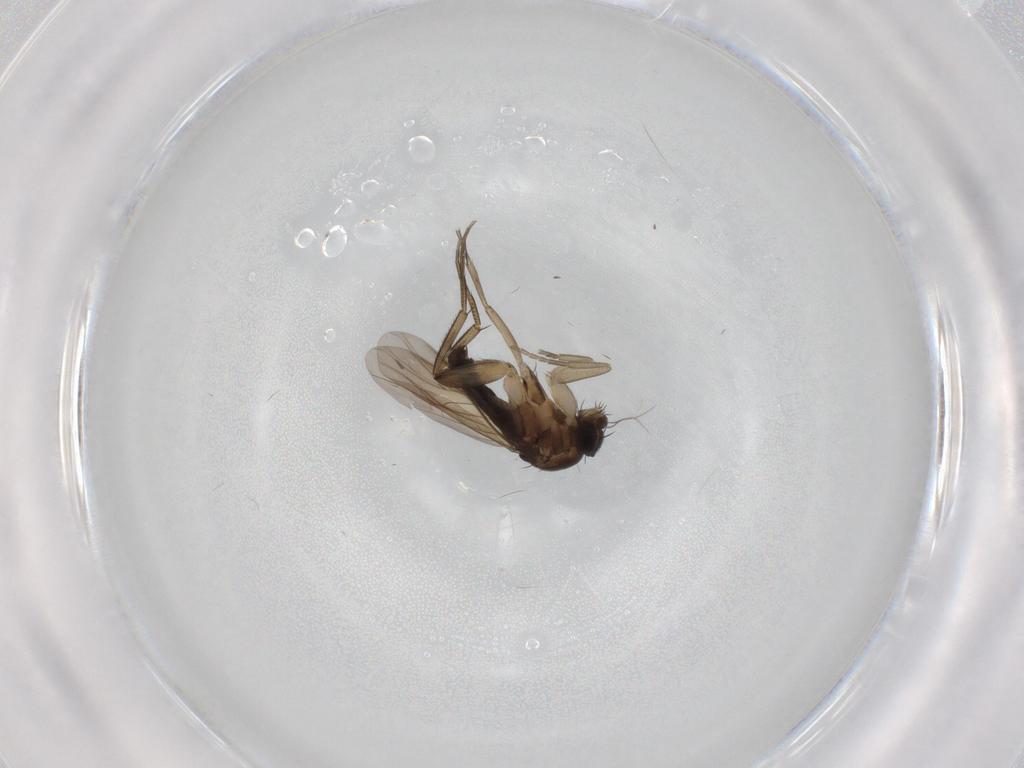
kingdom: Animalia
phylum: Arthropoda
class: Insecta
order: Diptera
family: Phoridae
